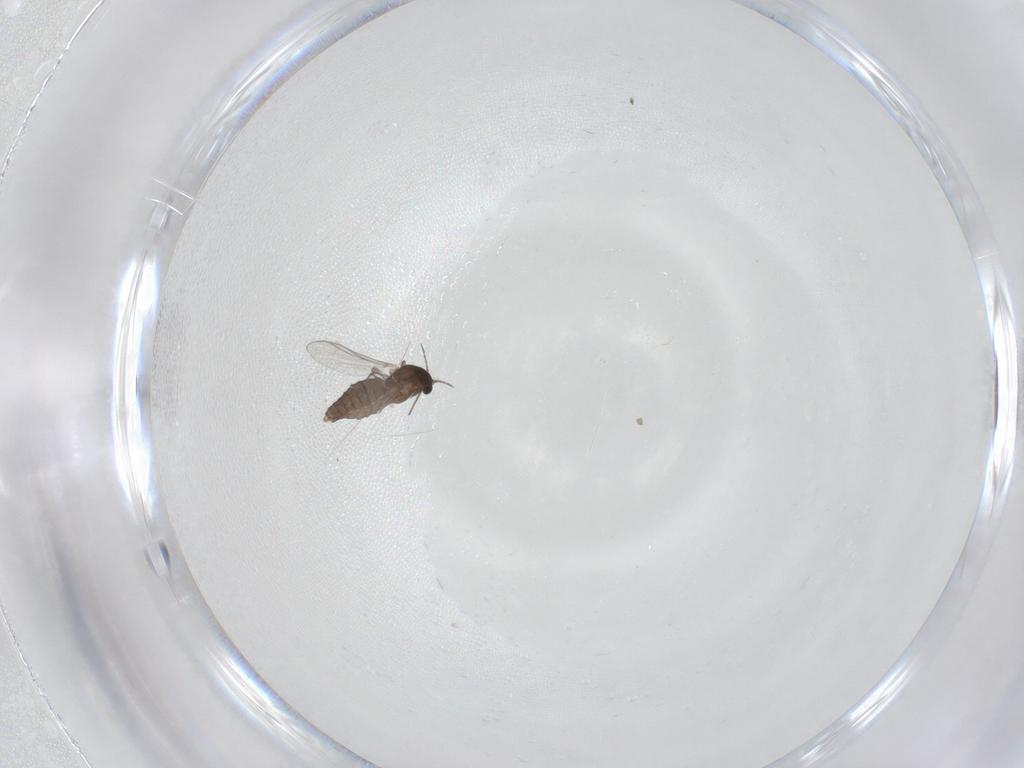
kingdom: Animalia
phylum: Arthropoda
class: Insecta
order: Diptera
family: Chironomidae
